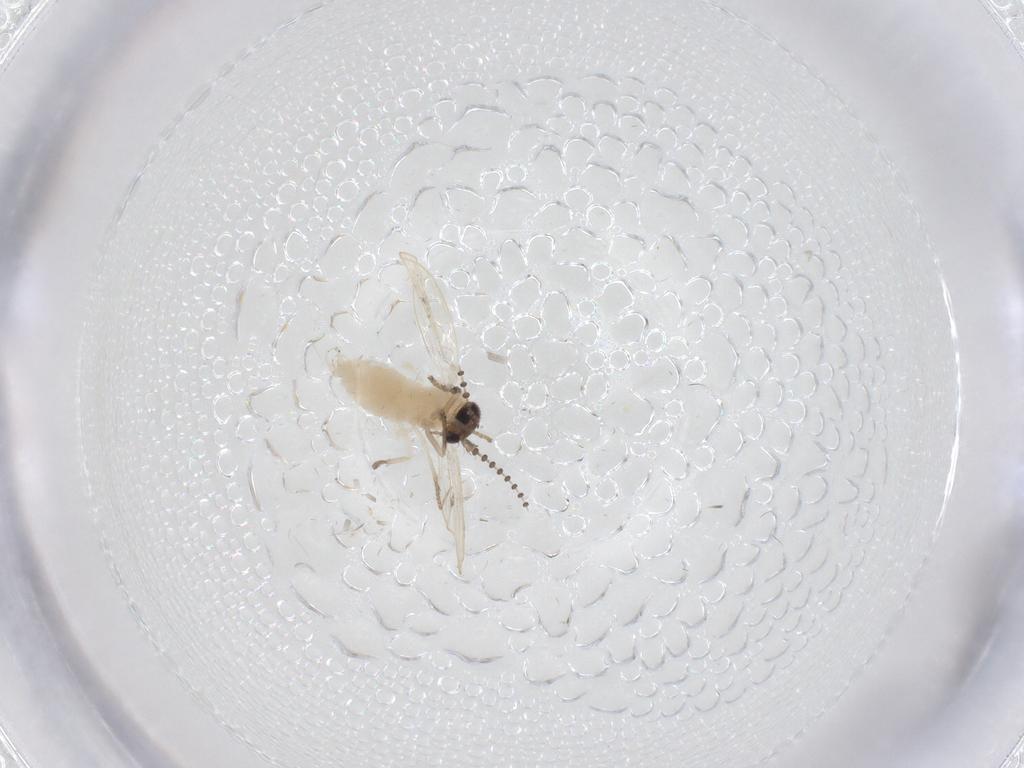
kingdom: Animalia
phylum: Arthropoda
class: Insecta
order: Diptera
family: Psychodidae
